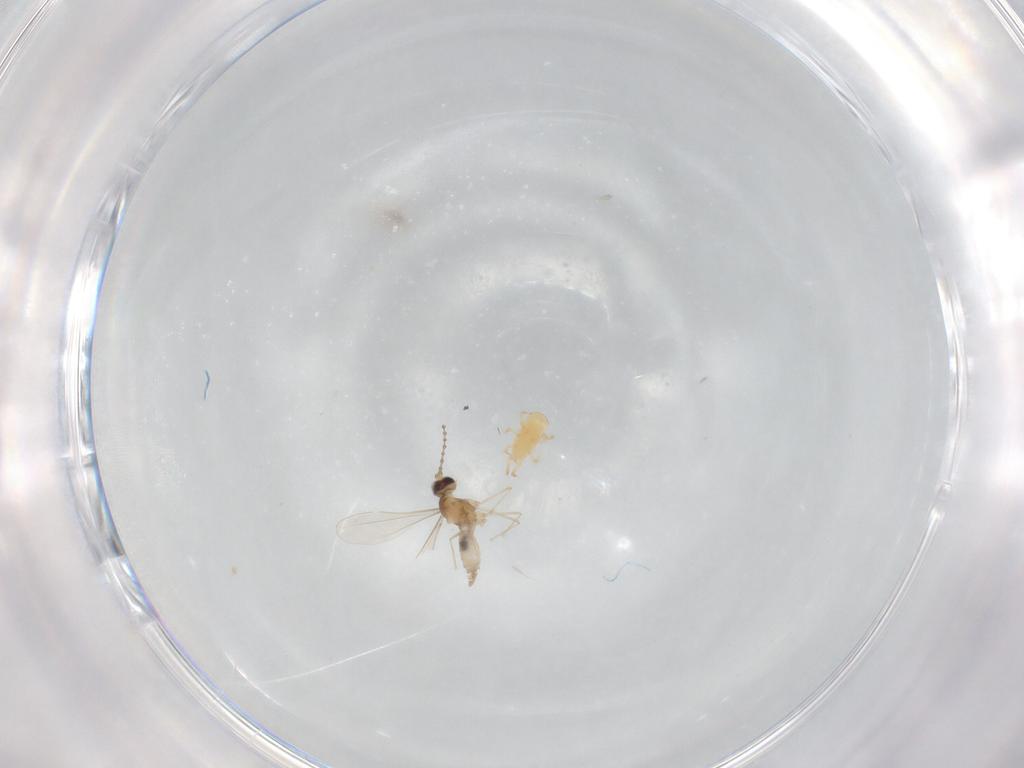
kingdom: Animalia
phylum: Arthropoda
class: Insecta
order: Diptera
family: Cecidomyiidae
